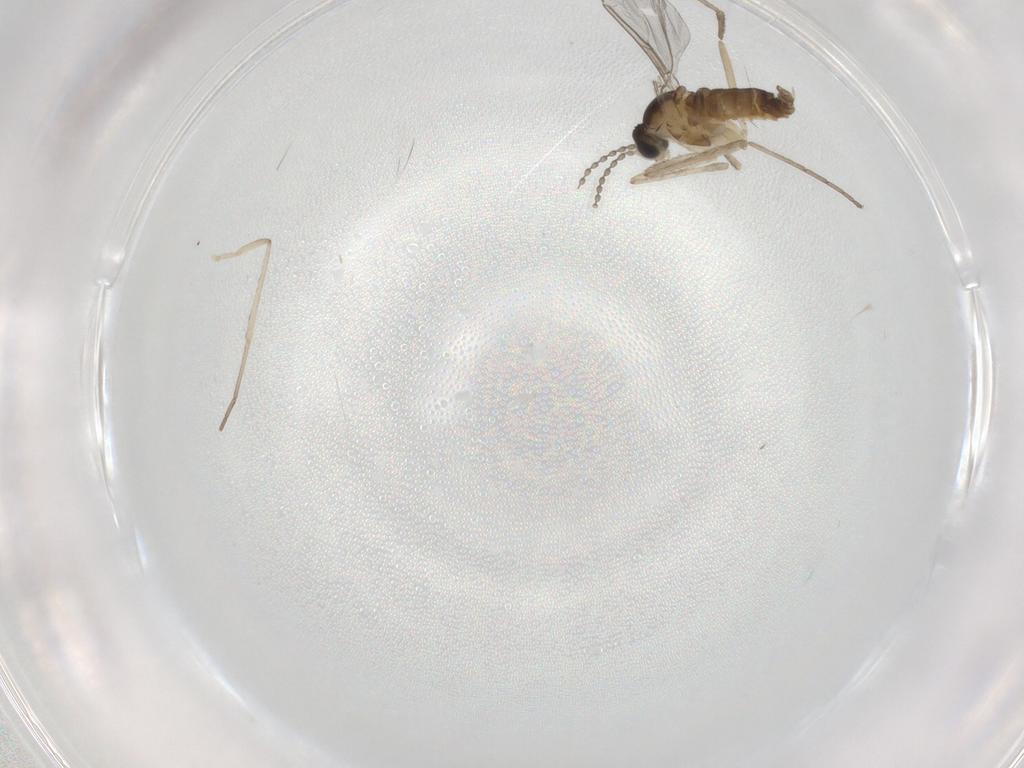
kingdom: Animalia
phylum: Arthropoda
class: Insecta
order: Diptera
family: Cecidomyiidae
